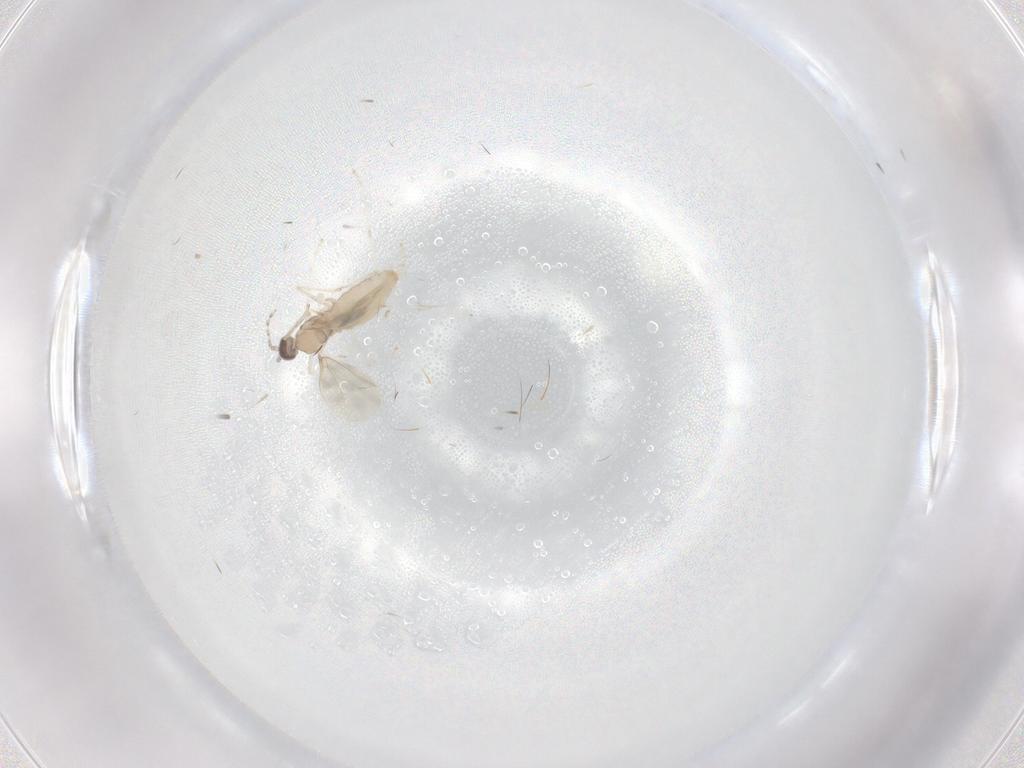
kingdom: Animalia
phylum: Arthropoda
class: Insecta
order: Diptera
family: Cecidomyiidae
